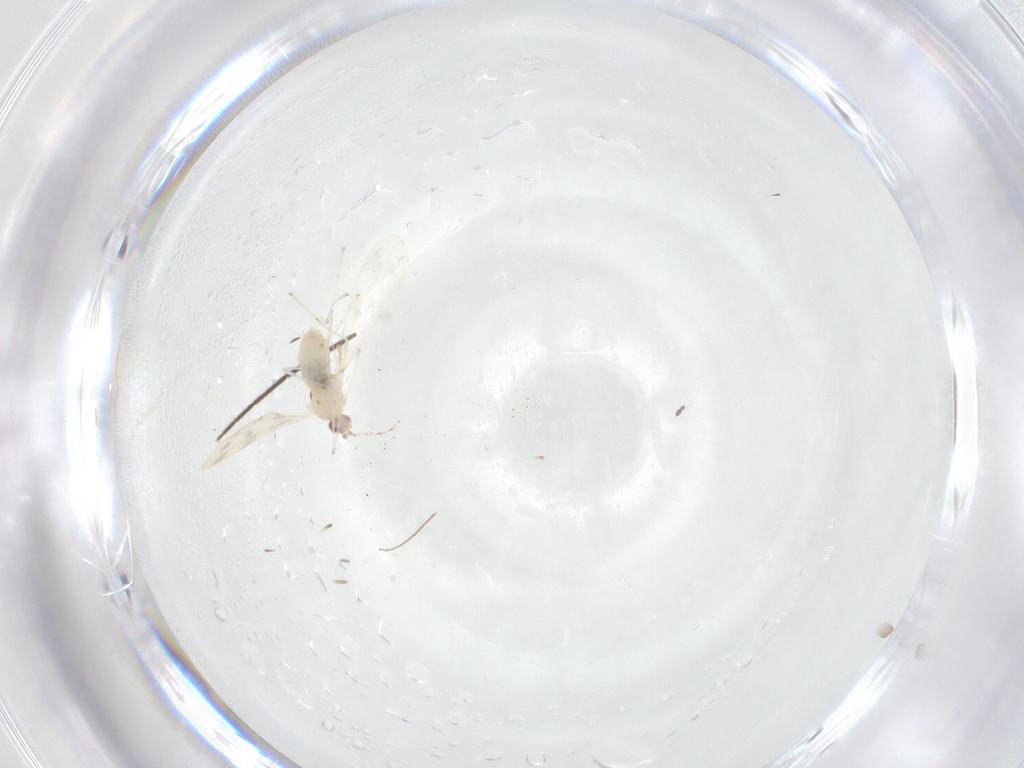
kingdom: Animalia
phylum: Arthropoda
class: Insecta
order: Diptera
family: Cecidomyiidae
